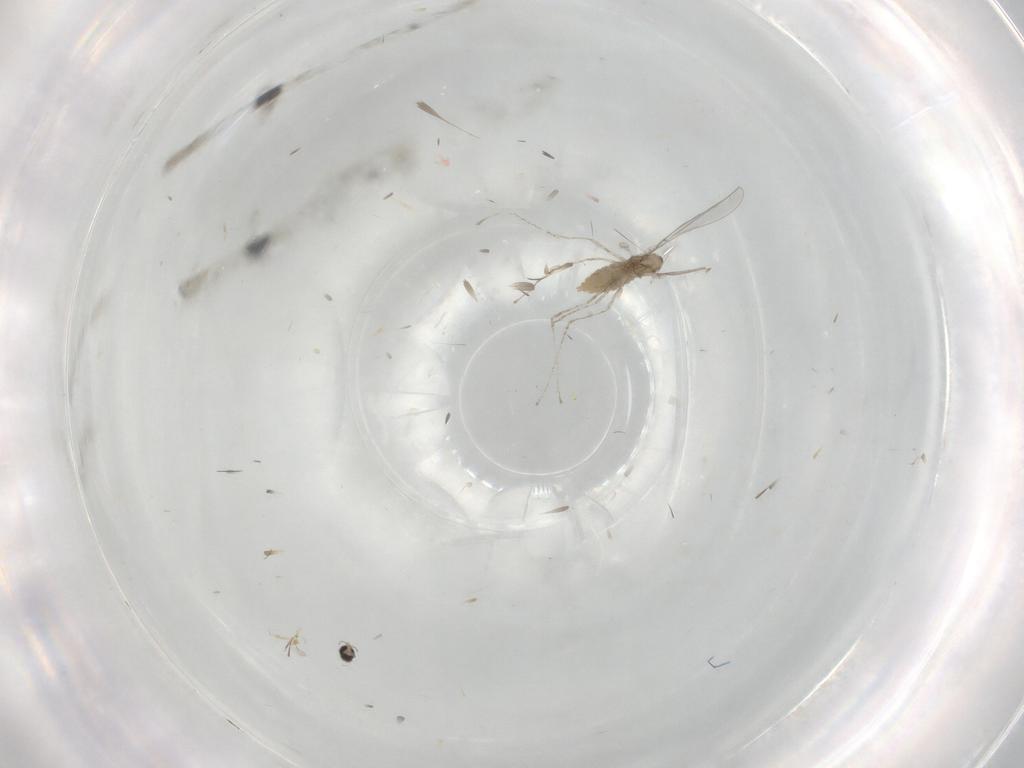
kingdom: Animalia
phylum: Arthropoda
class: Insecta
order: Diptera
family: Cecidomyiidae
